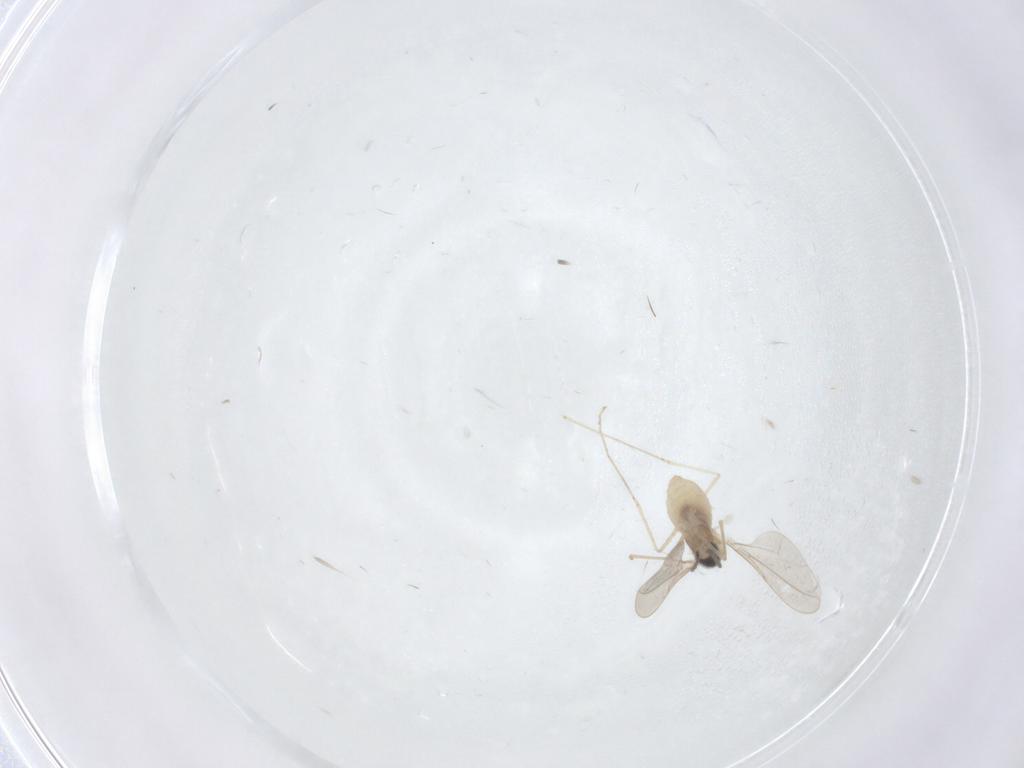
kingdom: Animalia
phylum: Arthropoda
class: Insecta
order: Diptera
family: Cecidomyiidae
